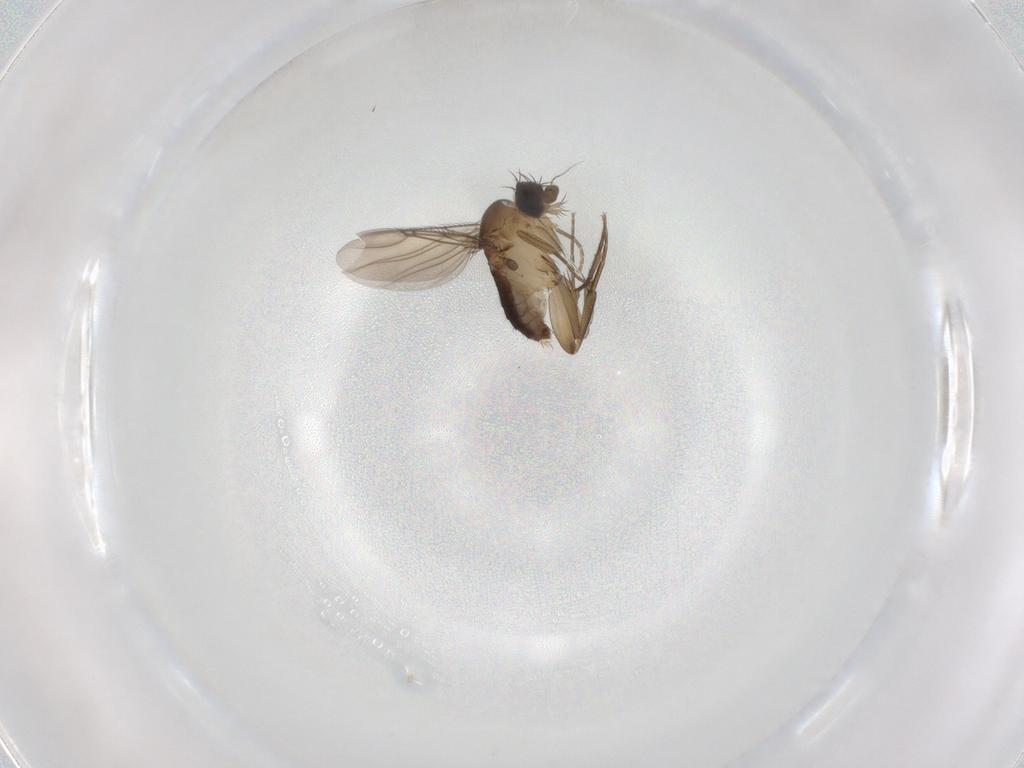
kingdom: Animalia
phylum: Arthropoda
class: Insecta
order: Diptera
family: Phoridae
